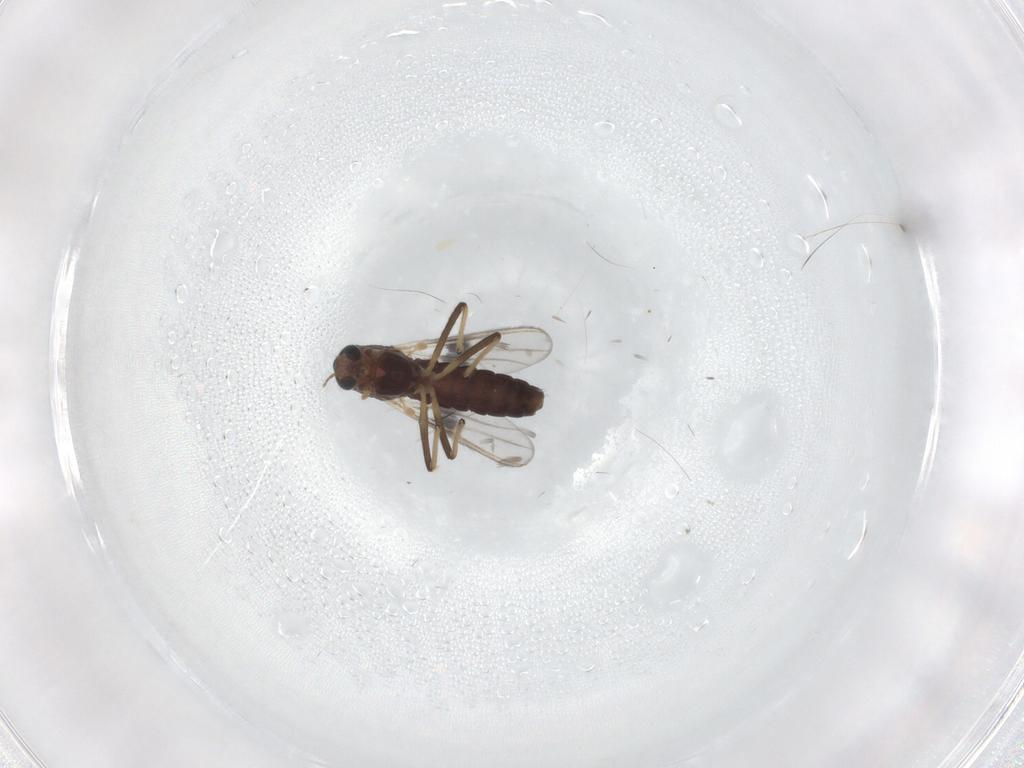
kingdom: Animalia
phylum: Arthropoda
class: Insecta
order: Diptera
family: Chironomidae
